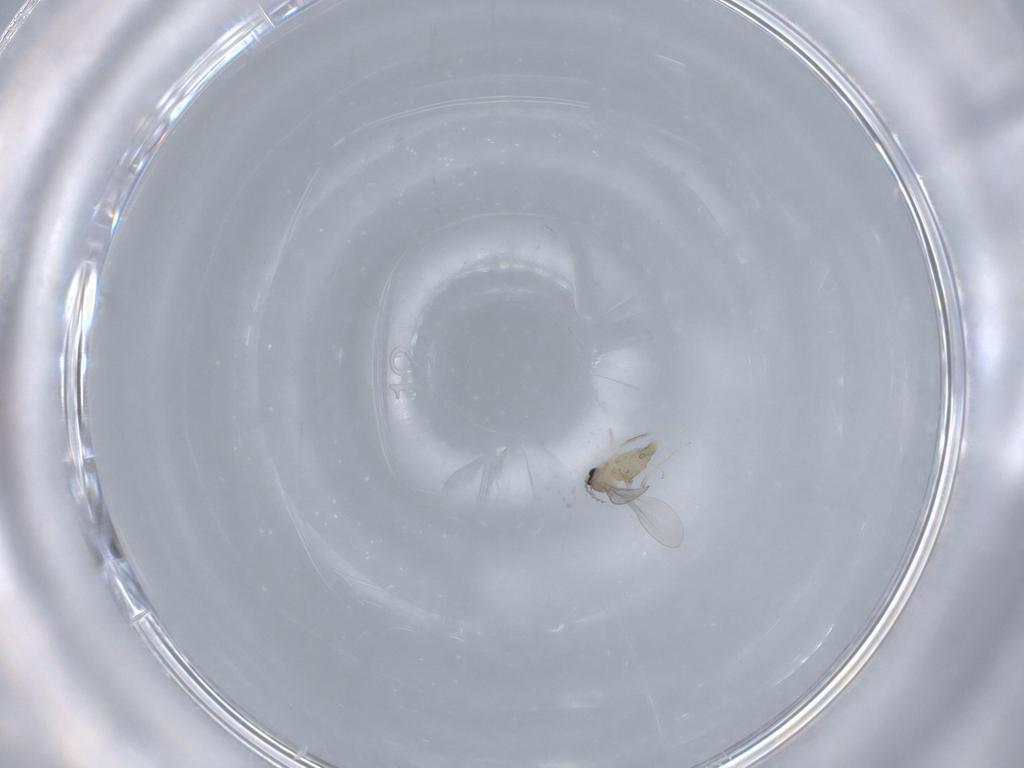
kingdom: Animalia
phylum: Arthropoda
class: Insecta
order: Diptera
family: Cecidomyiidae
